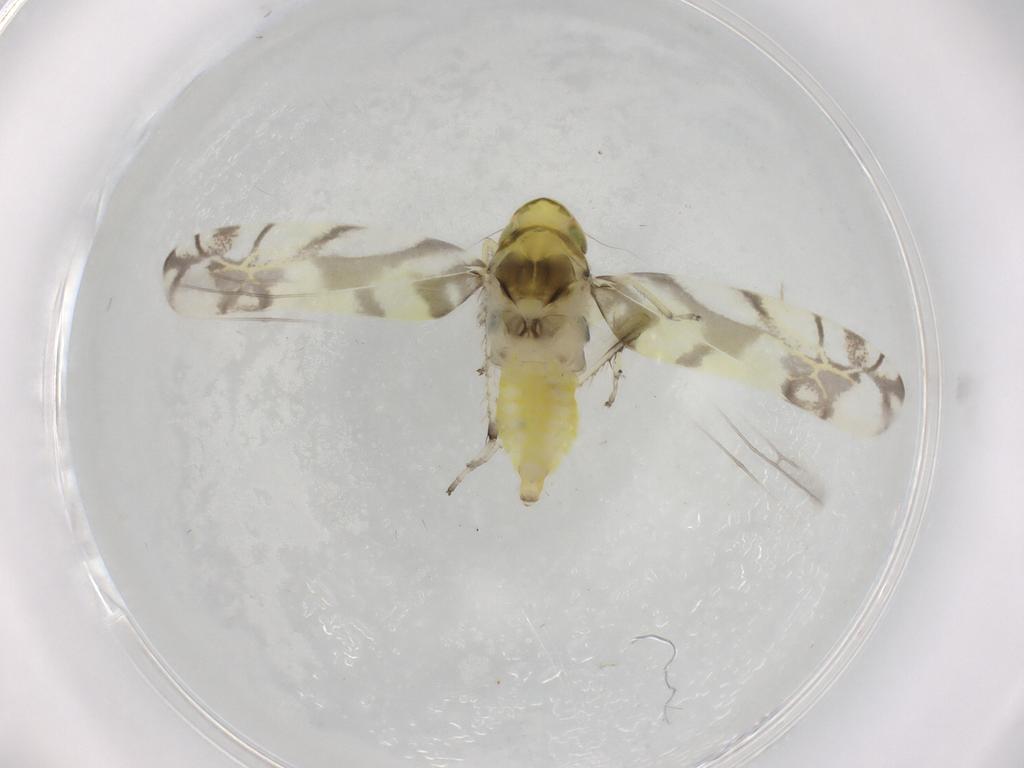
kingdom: Animalia
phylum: Arthropoda
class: Insecta
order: Hemiptera
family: Cicadellidae
